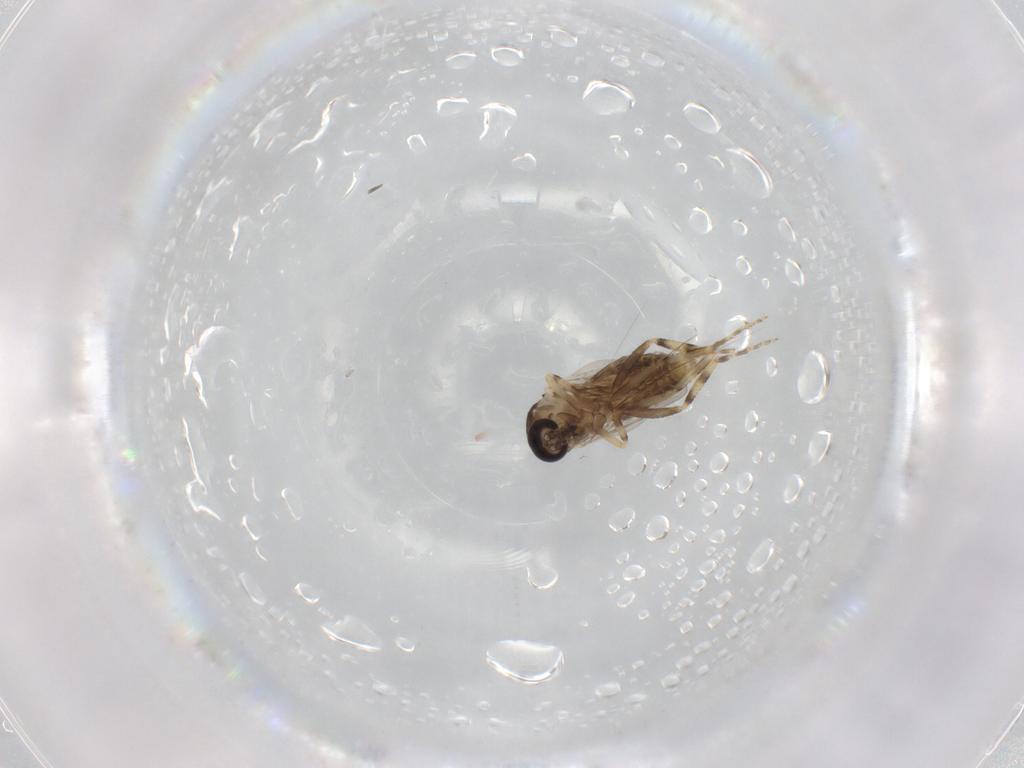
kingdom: Animalia
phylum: Arthropoda
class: Insecta
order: Diptera
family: Ceratopogonidae
